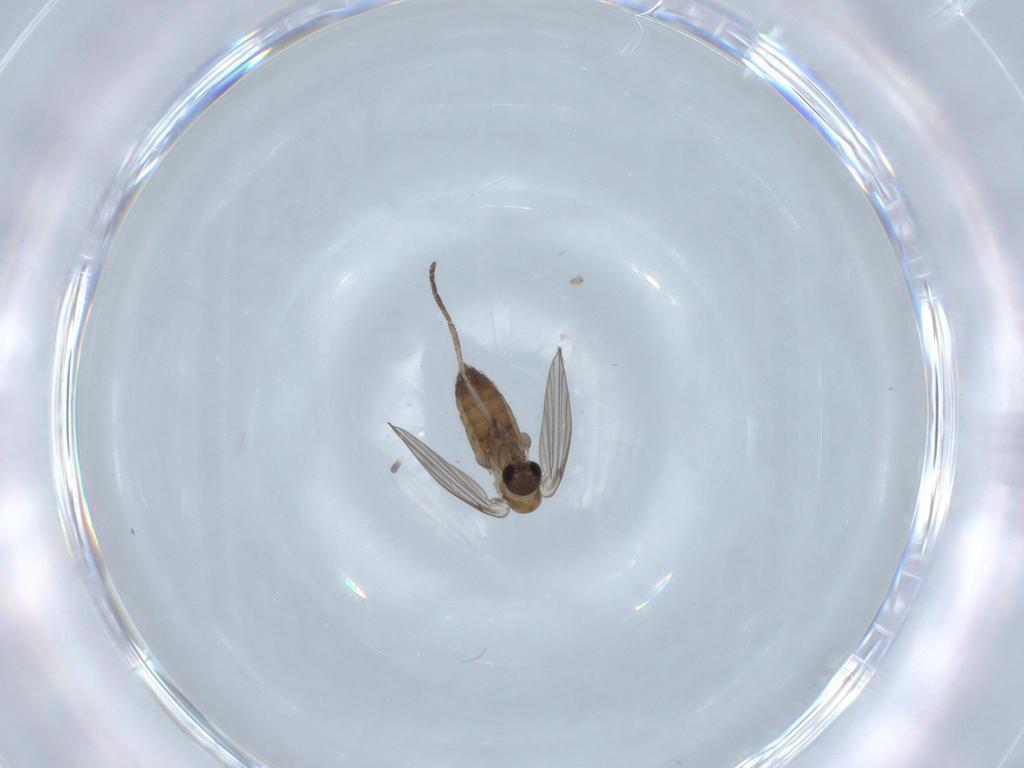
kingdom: Animalia
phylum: Arthropoda
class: Insecta
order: Diptera
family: Psychodidae
